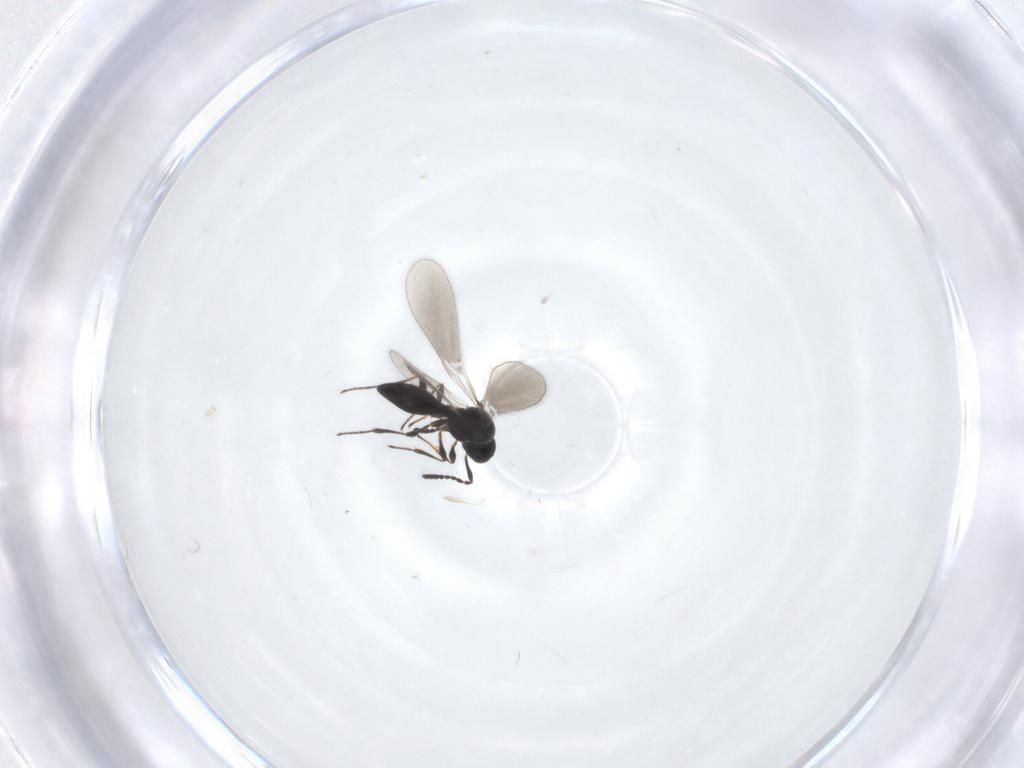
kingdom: Animalia
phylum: Arthropoda
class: Insecta
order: Hymenoptera
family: Platygastridae
